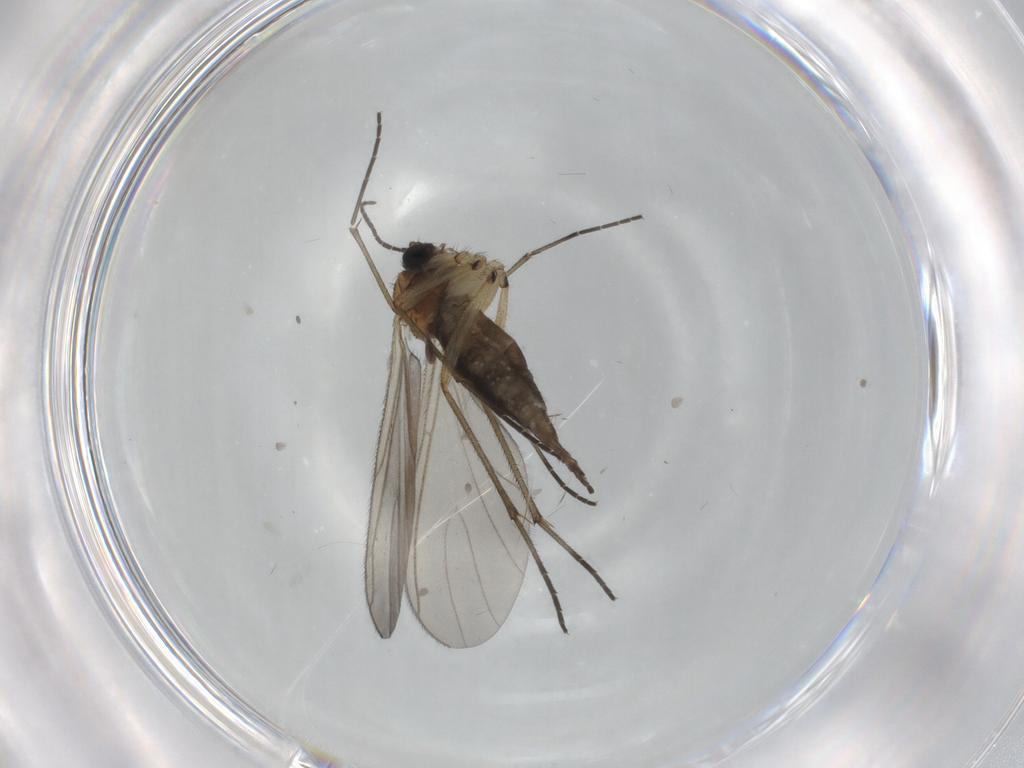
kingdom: Animalia
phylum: Arthropoda
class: Insecta
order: Diptera
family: Sciaridae
